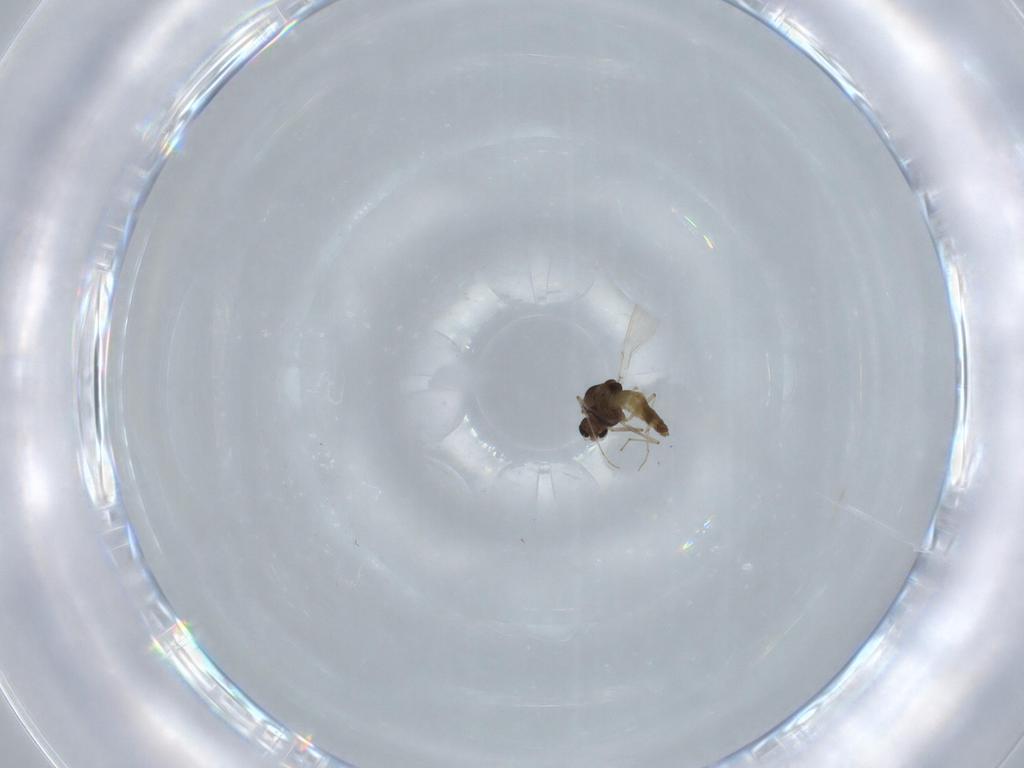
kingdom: Animalia
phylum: Arthropoda
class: Insecta
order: Diptera
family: Chironomidae
